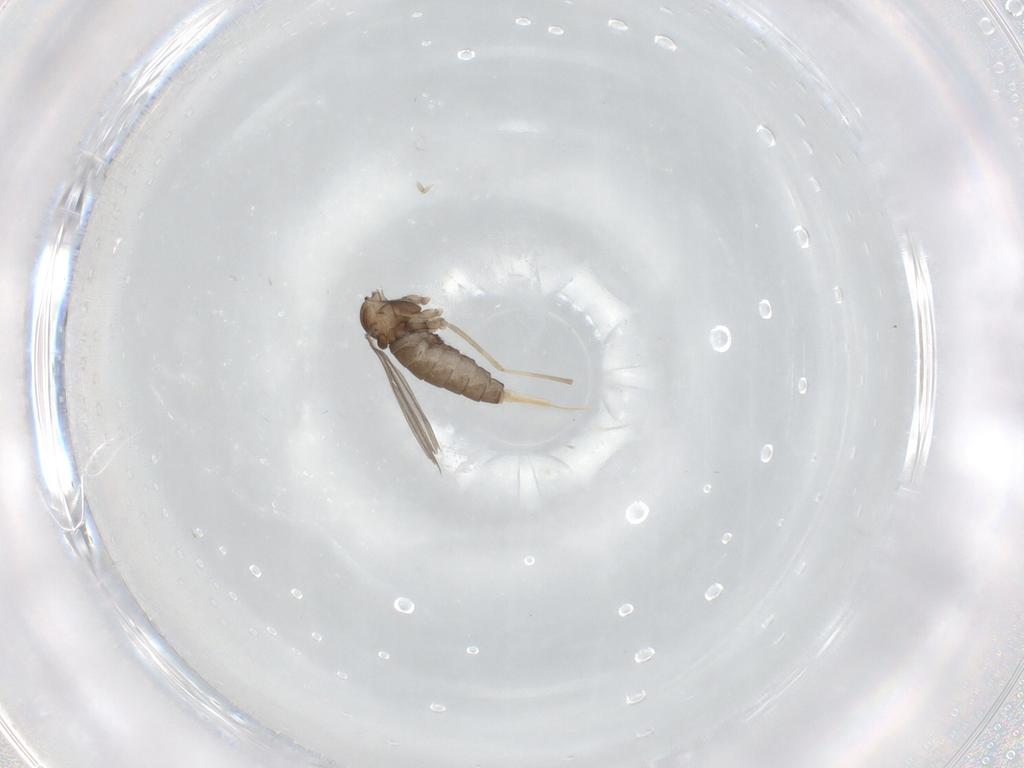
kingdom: Animalia
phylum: Arthropoda
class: Insecta
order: Diptera
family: Cecidomyiidae
